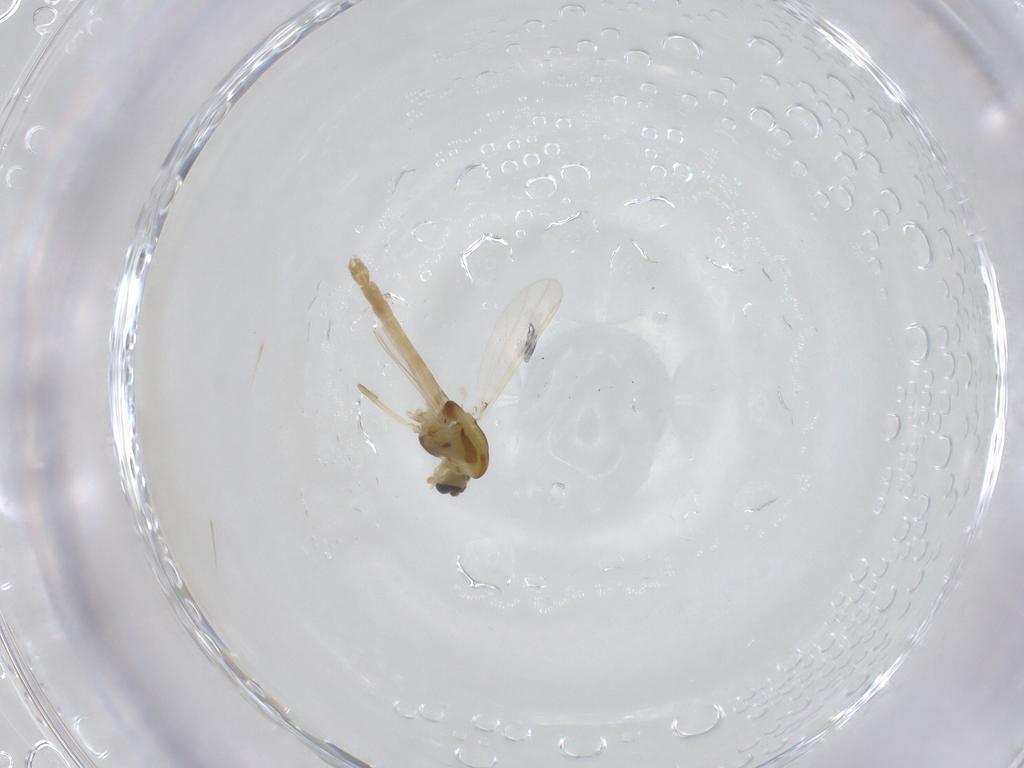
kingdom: Animalia
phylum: Arthropoda
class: Insecta
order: Diptera
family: Chironomidae
